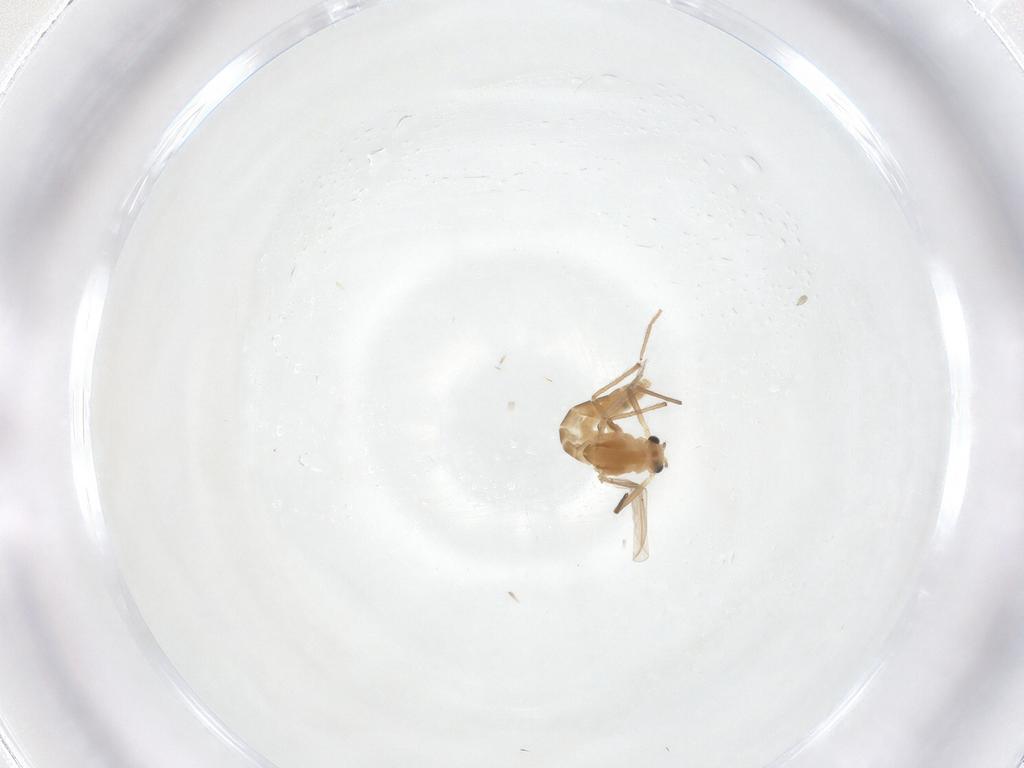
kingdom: Animalia
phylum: Arthropoda
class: Insecta
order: Diptera
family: Chironomidae
